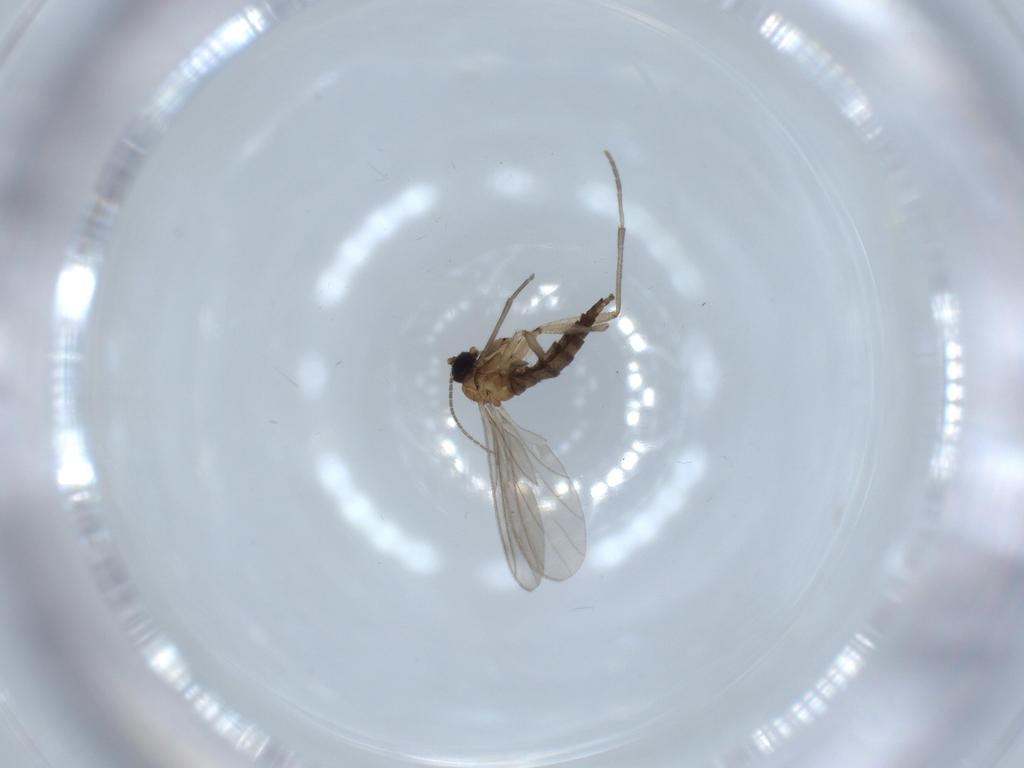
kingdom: Animalia
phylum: Arthropoda
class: Insecta
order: Diptera
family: Sciaridae
